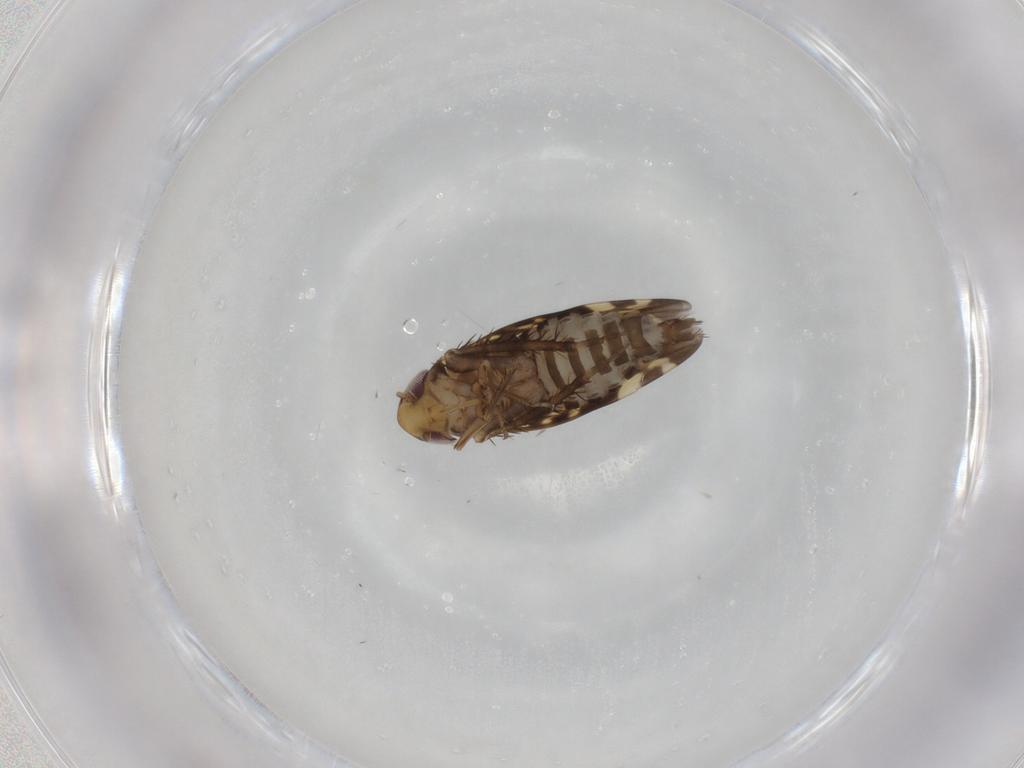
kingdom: Animalia
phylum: Arthropoda
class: Insecta
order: Hemiptera
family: Cicadellidae
